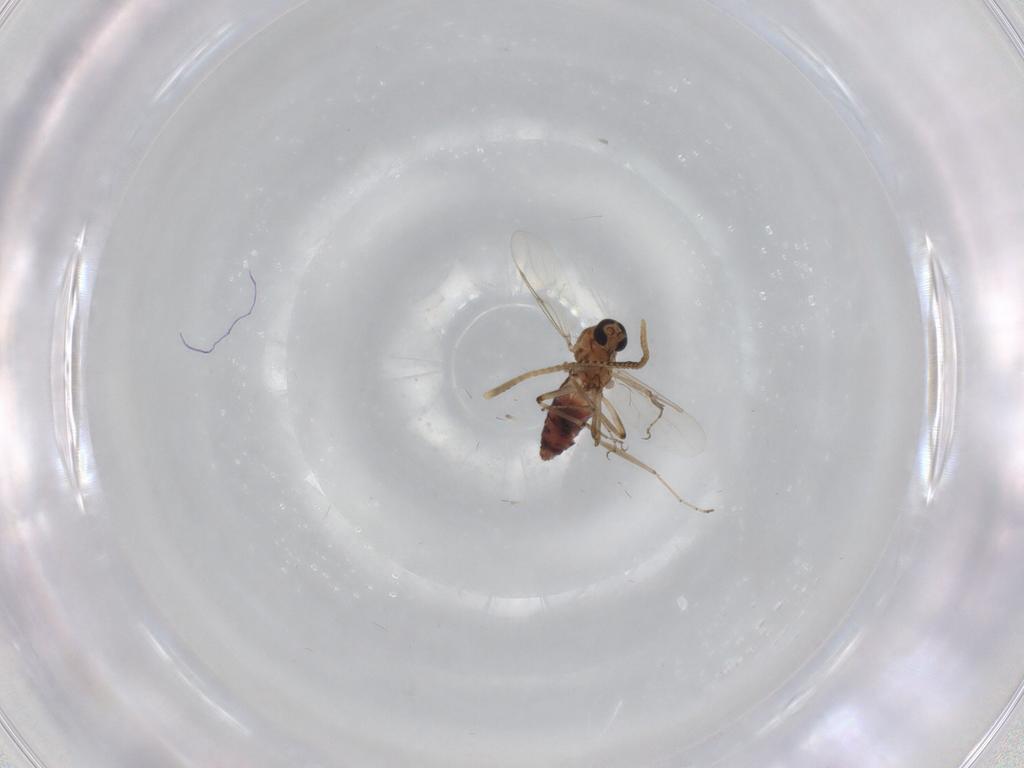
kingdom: Animalia
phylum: Arthropoda
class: Insecta
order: Diptera
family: Ceratopogonidae
